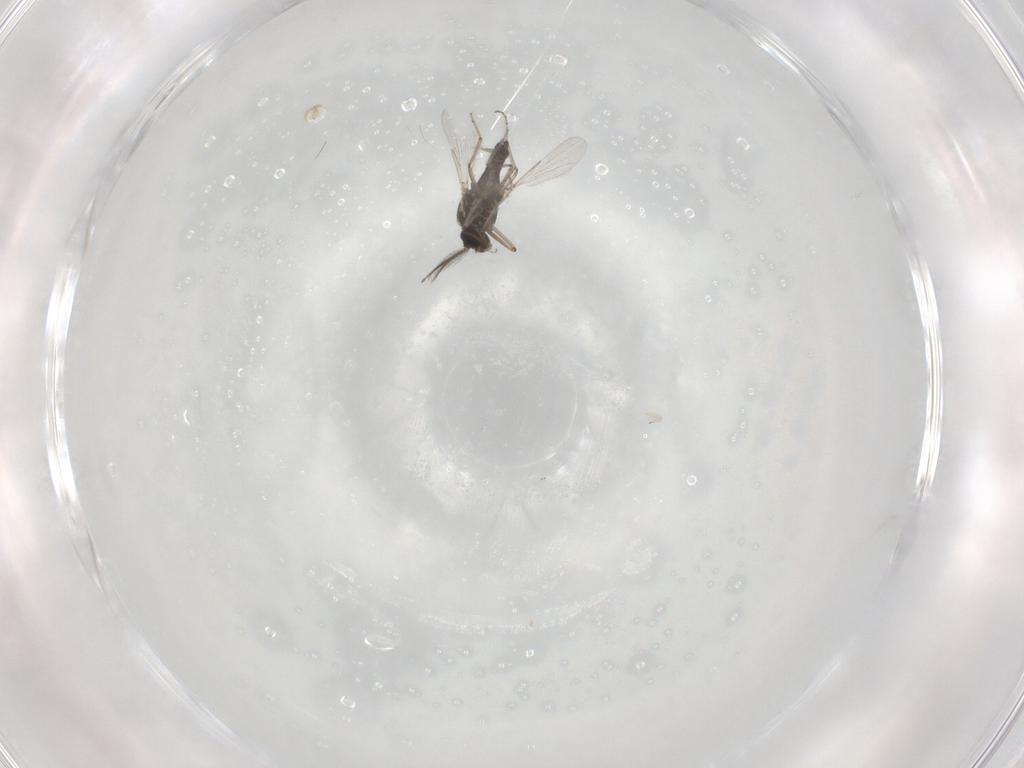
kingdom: Animalia
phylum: Arthropoda
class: Insecta
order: Diptera
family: Ceratopogonidae
